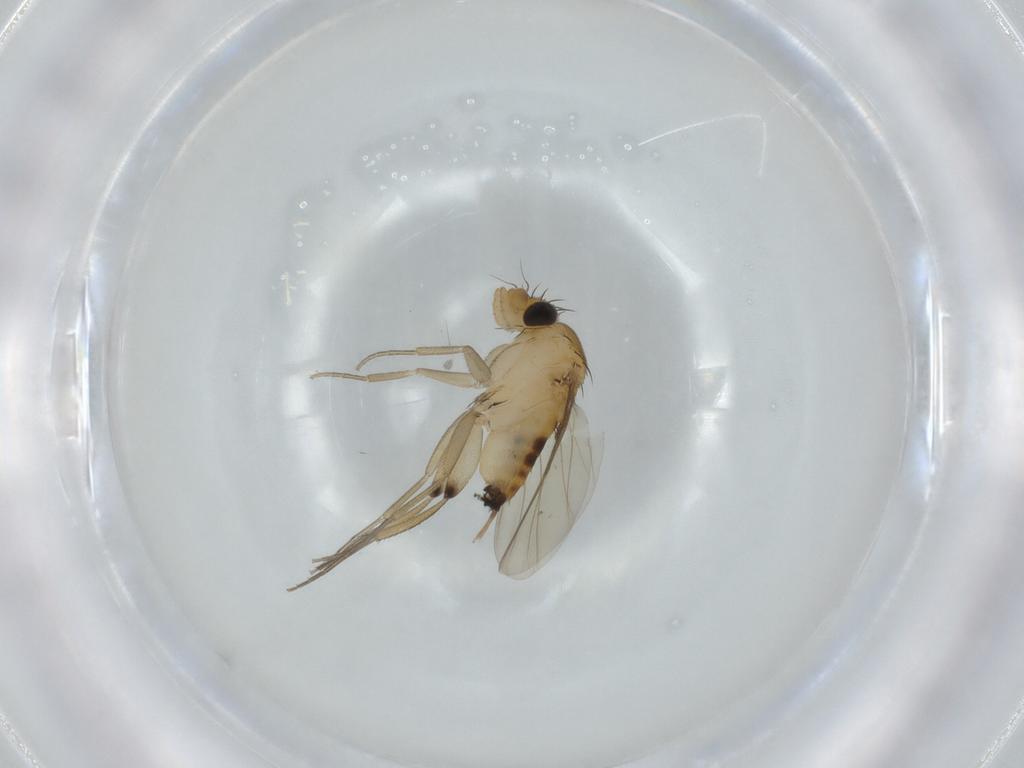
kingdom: Animalia
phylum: Arthropoda
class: Insecta
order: Diptera
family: Phoridae
